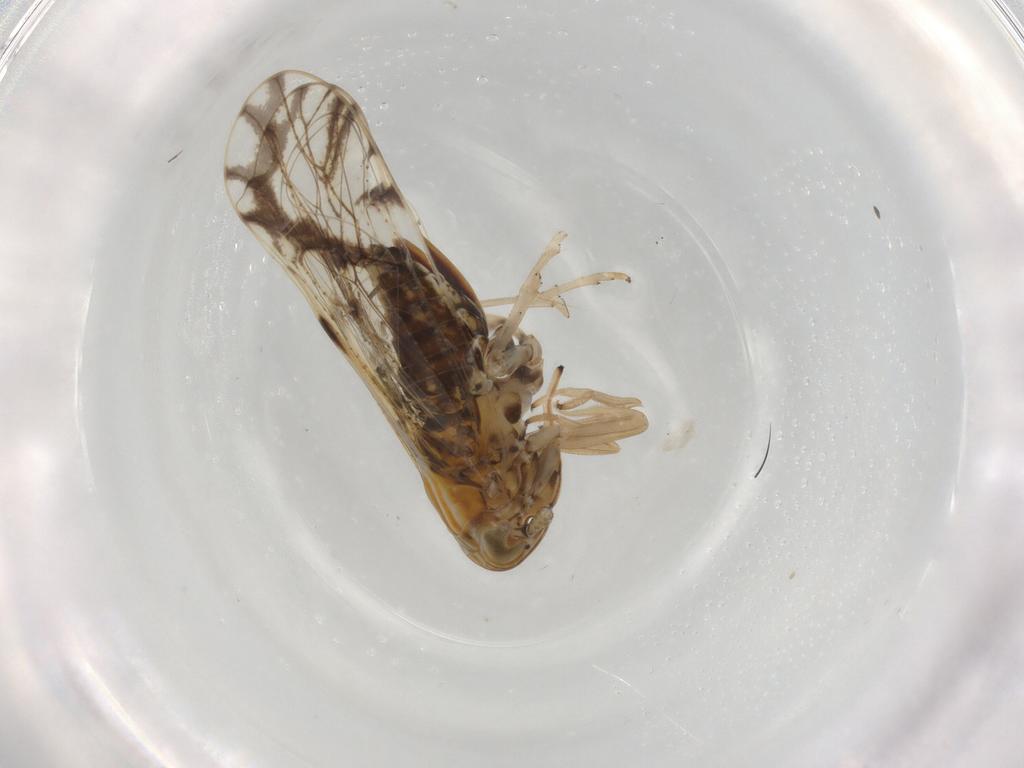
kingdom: Animalia
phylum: Arthropoda
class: Insecta
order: Hemiptera
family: Delphacidae
